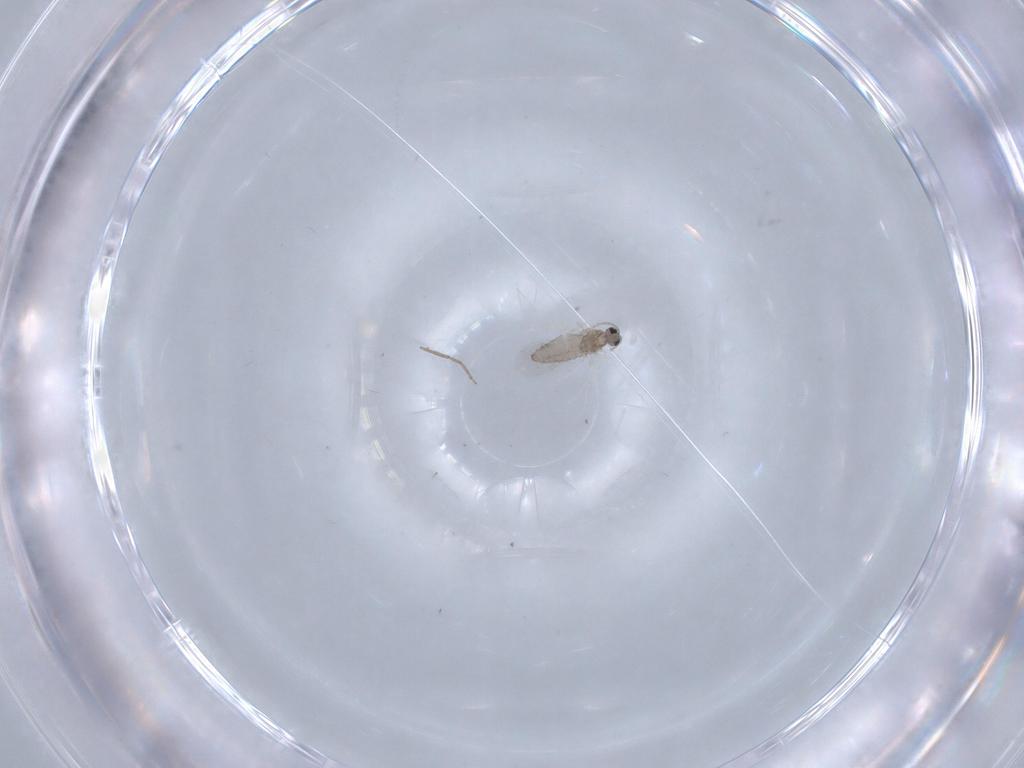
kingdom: Animalia
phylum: Arthropoda
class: Insecta
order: Diptera
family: Cecidomyiidae
